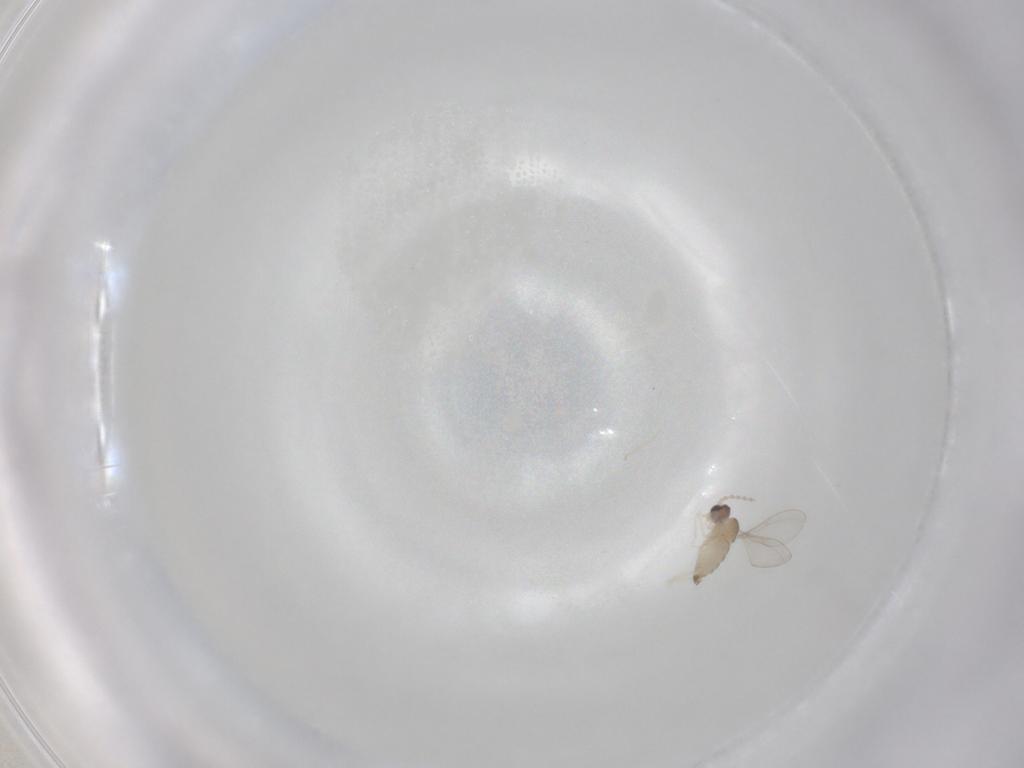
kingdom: Animalia
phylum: Arthropoda
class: Insecta
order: Diptera
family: Cecidomyiidae
